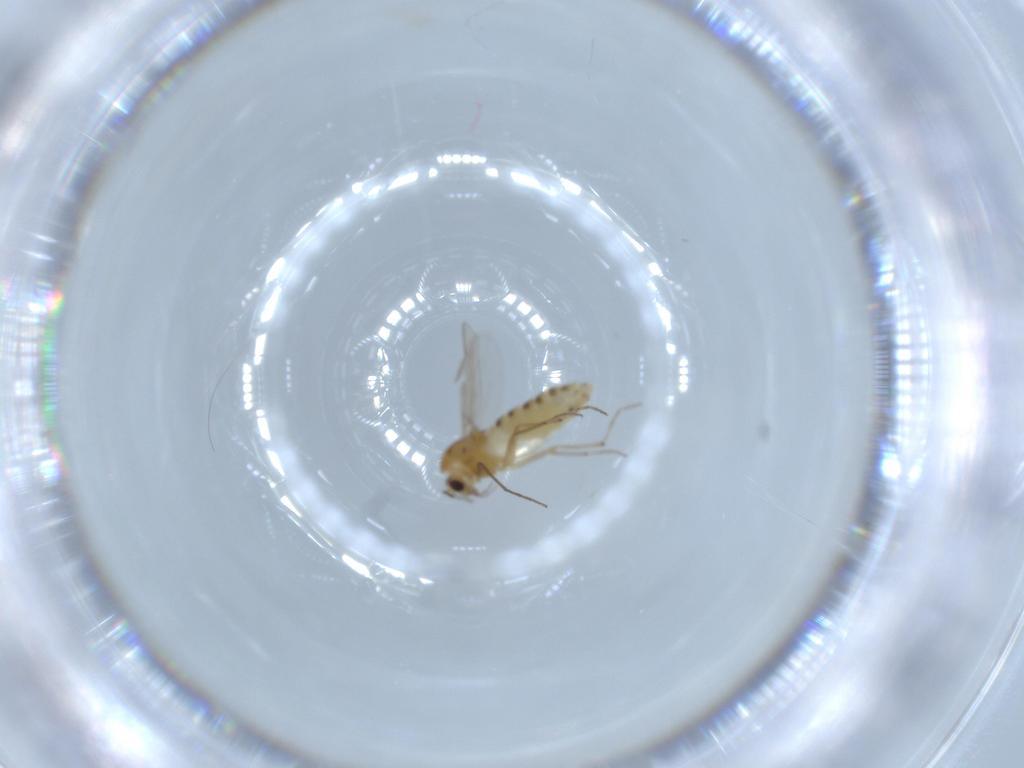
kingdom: Animalia
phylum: Arthropoda
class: Insecta
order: Diptera
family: Chironomidae
